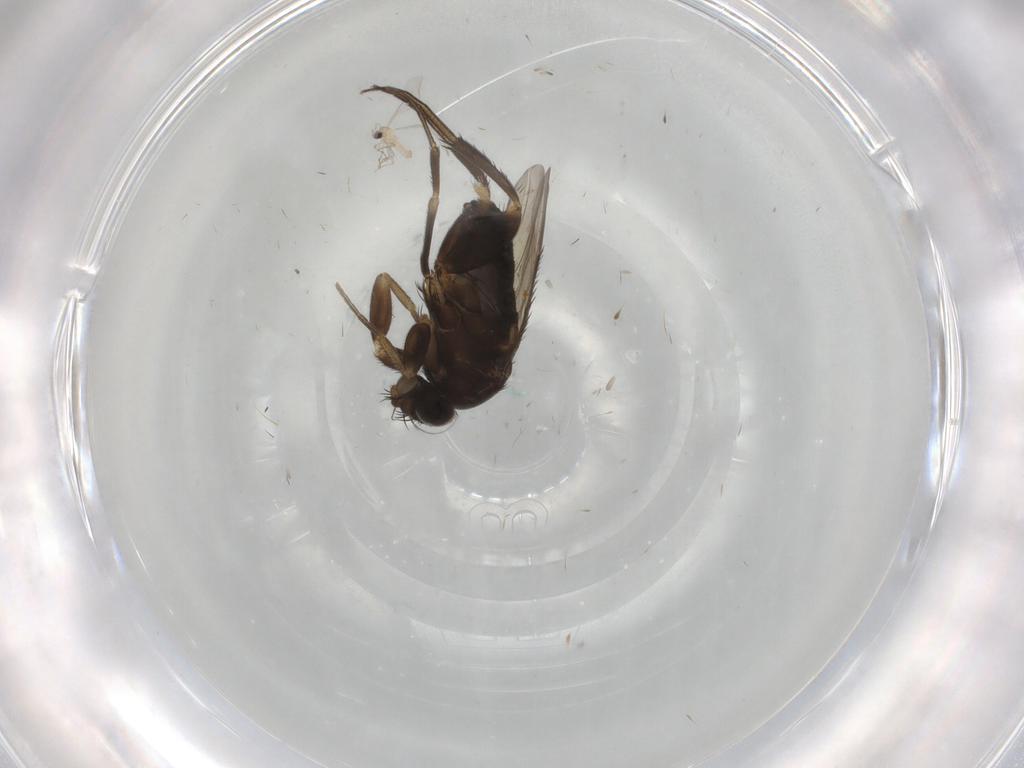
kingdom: Animalia
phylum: Arthropoda
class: Insecta
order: Diptera
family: Phoridae
